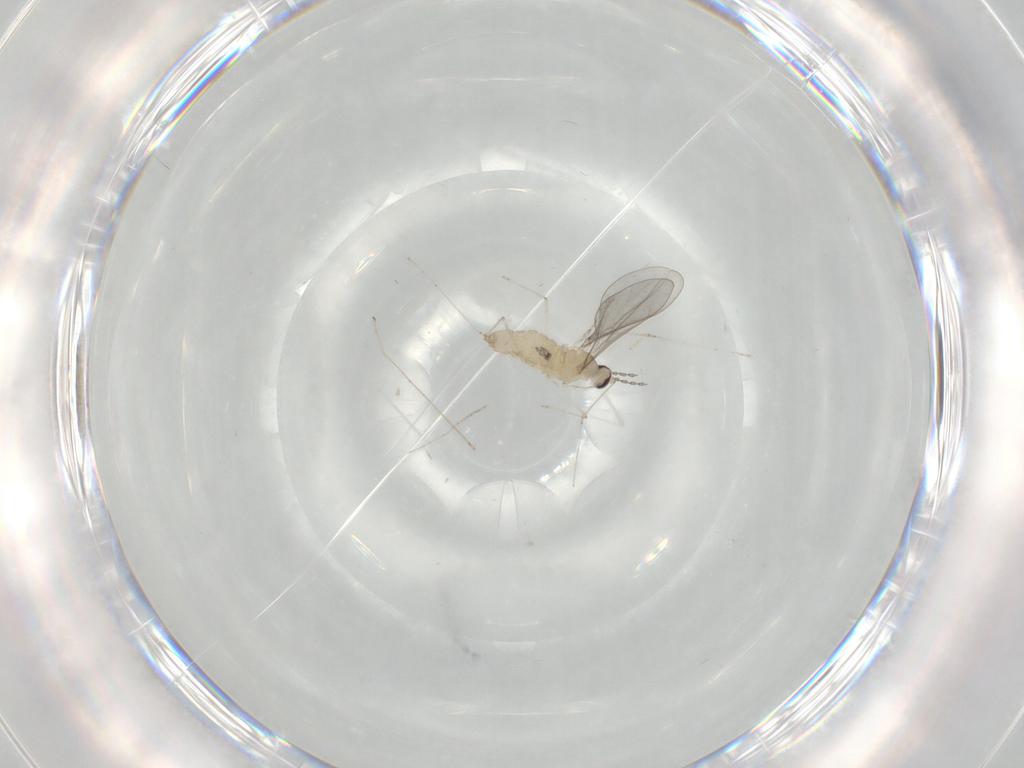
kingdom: Animalia
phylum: Arthropoda
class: Insecta
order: Diptera
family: Cecidomyiidae
